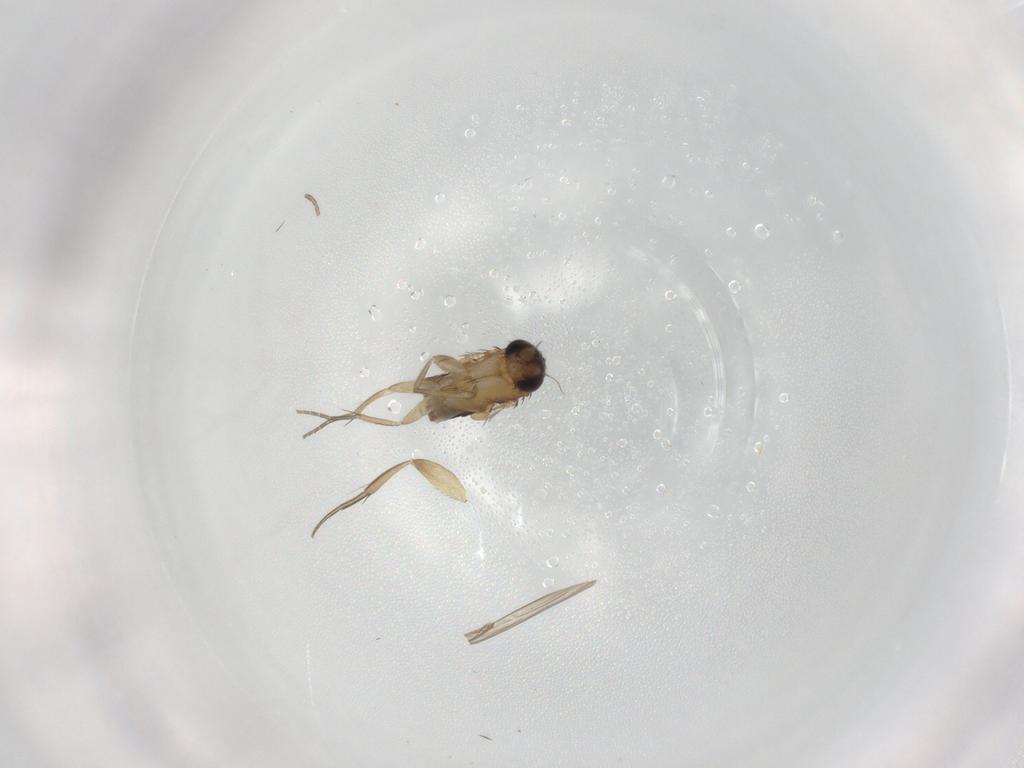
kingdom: Animalia
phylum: Arthropoda
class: Insecta
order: Diptera
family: Phoridae
